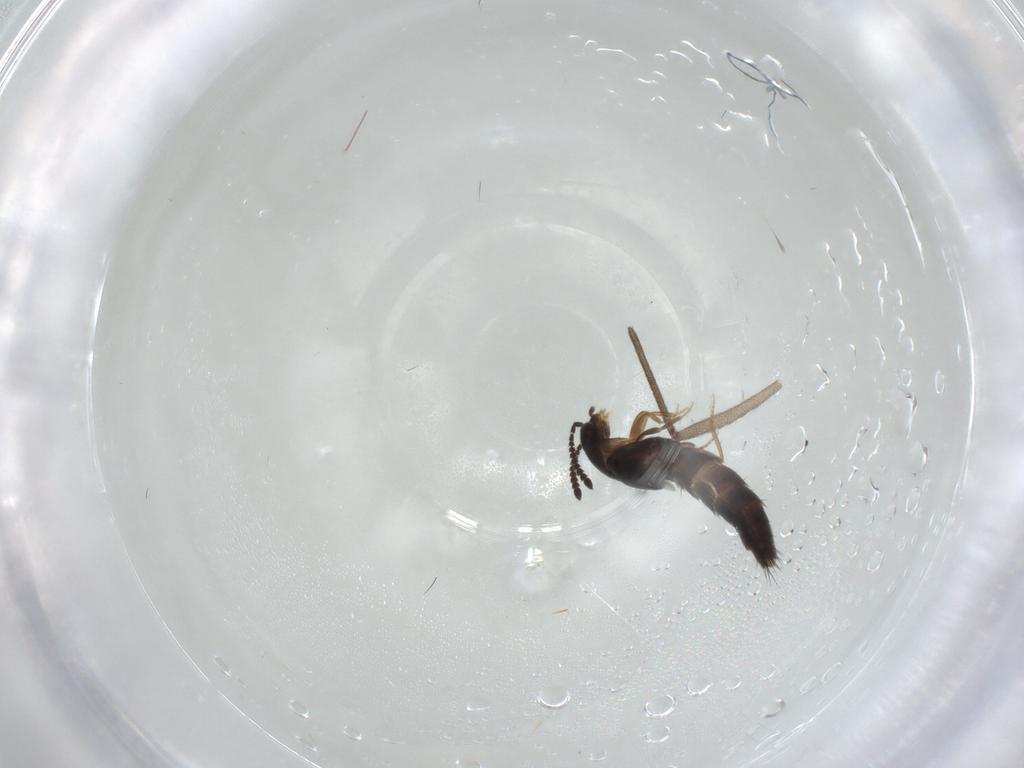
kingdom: Animalia
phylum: Arthropoda
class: Insecta
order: Coleoptera
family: Staphylinidae
